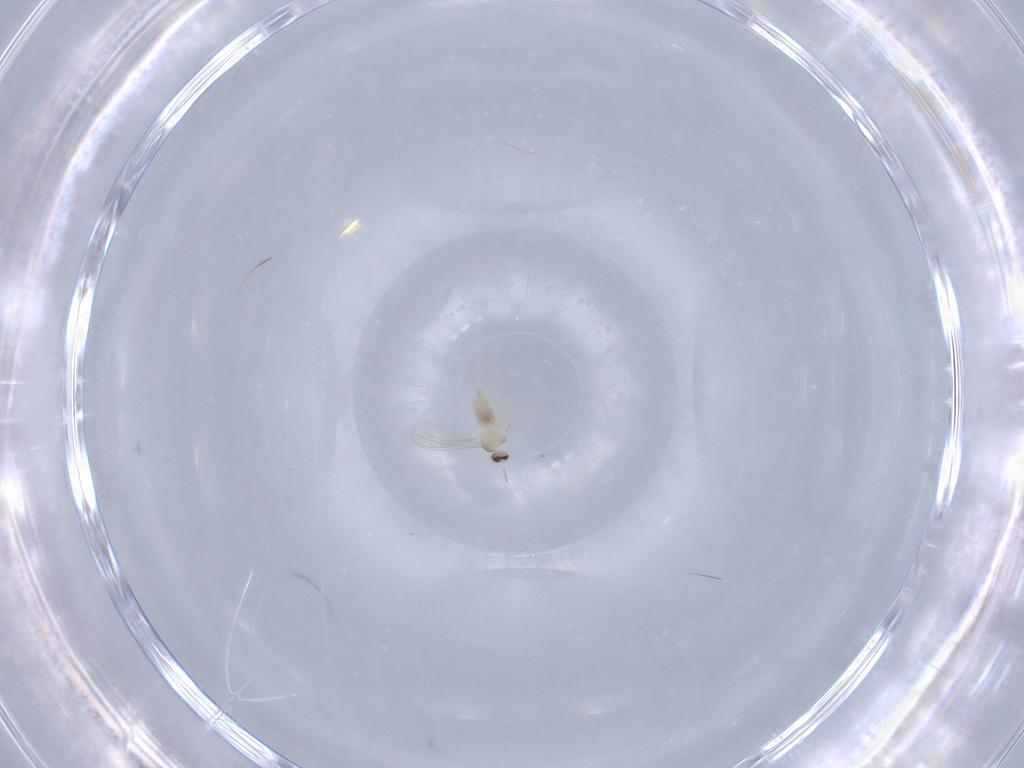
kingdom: Animalia
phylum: Arthropoda
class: Insecta
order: Diptera
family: Cecidomyiidae
